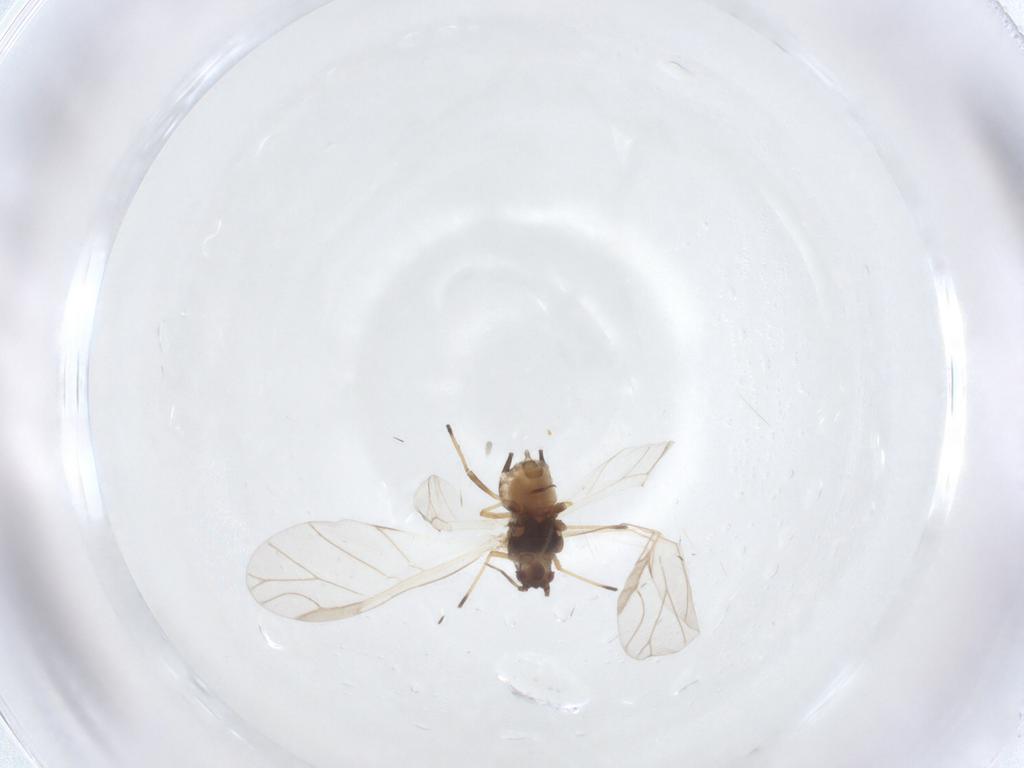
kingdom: Animalia
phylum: Arthropoda
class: Insecta
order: Hemiptera
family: Aphididae
